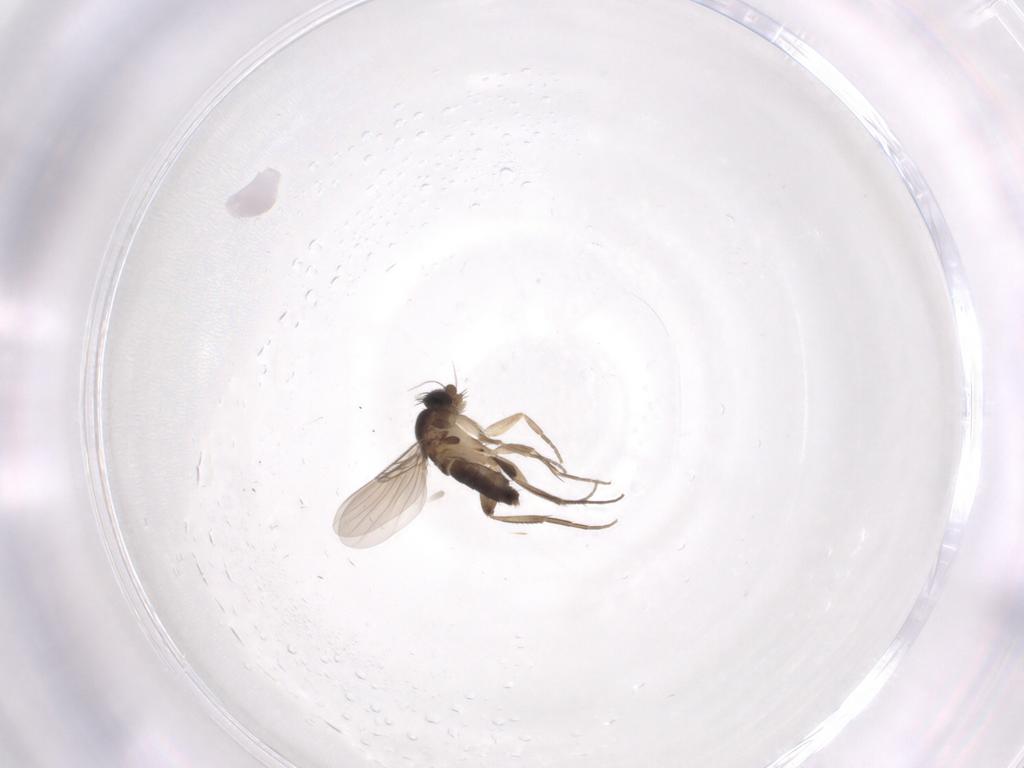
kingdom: Animalia
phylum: Arthropoda
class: Insecta
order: Diptera
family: Phoridae
